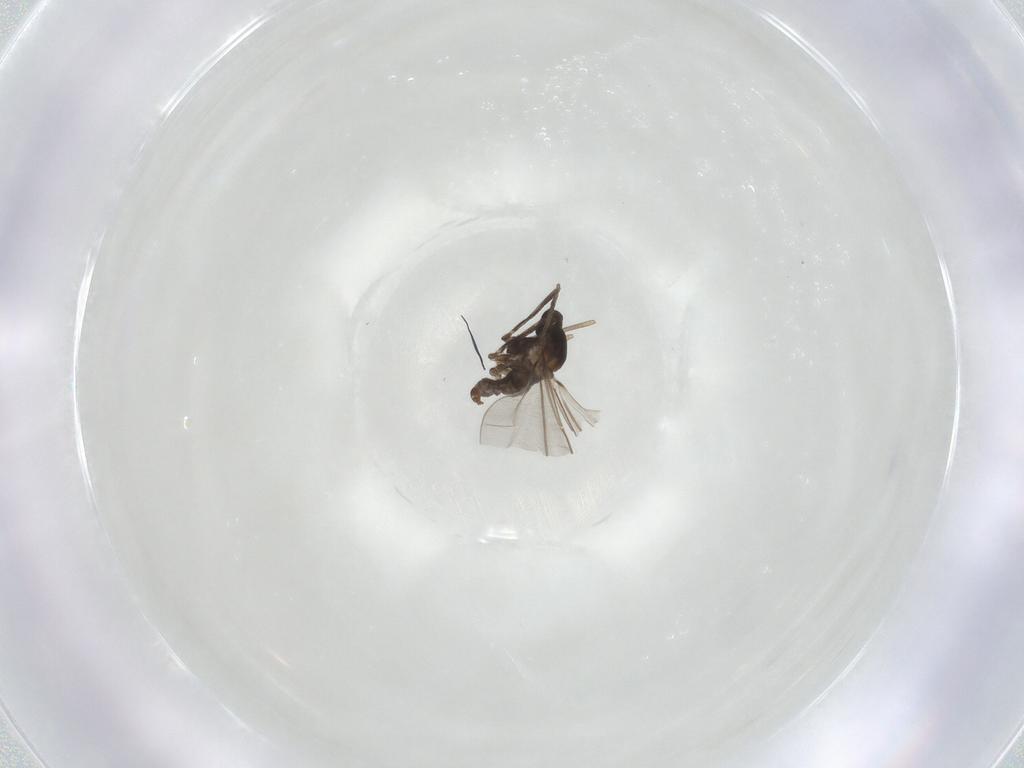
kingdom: Animalia
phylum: Arthropoda
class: Insecta
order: Diptera
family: Cecidomyiidae
